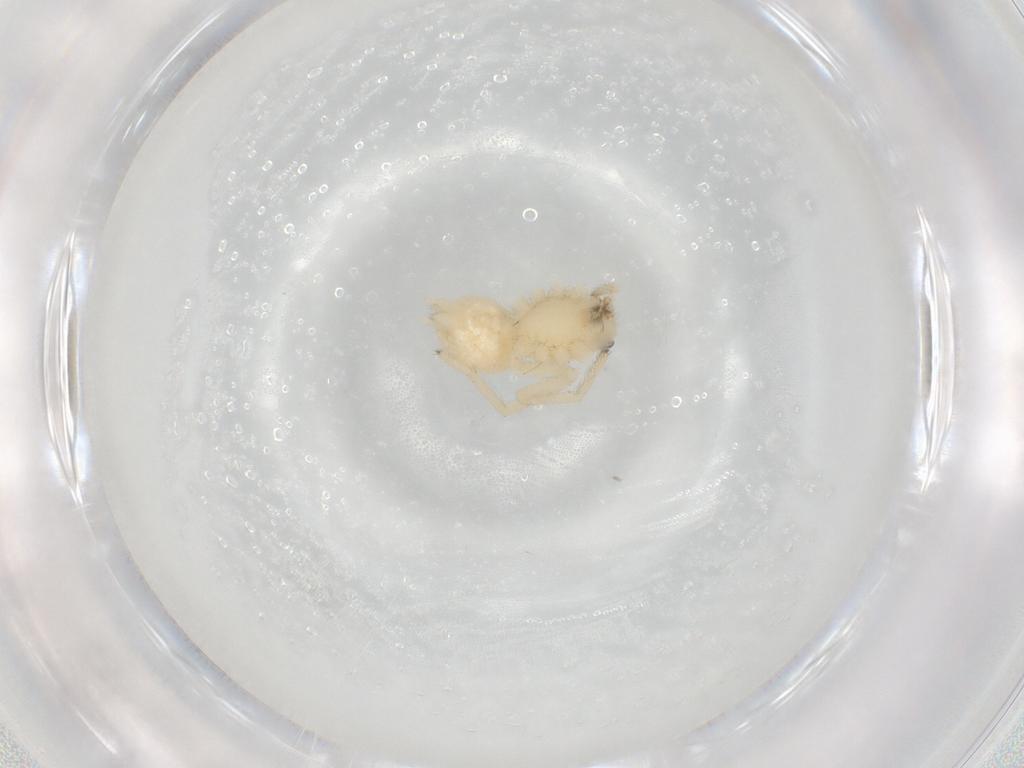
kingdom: Animalia
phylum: Arthropoda
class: Arachnida
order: Araneae
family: Cheiracanthiidae
